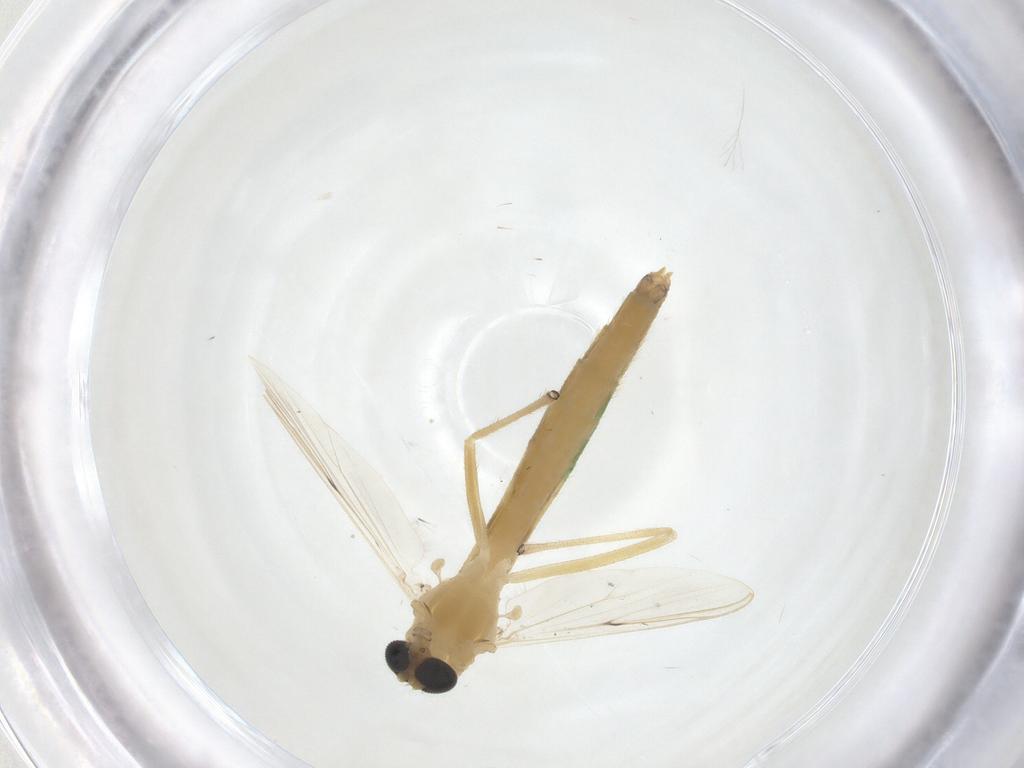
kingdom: Animalia
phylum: Arthropoda
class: Insecta
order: Diptera
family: Chironomidae
